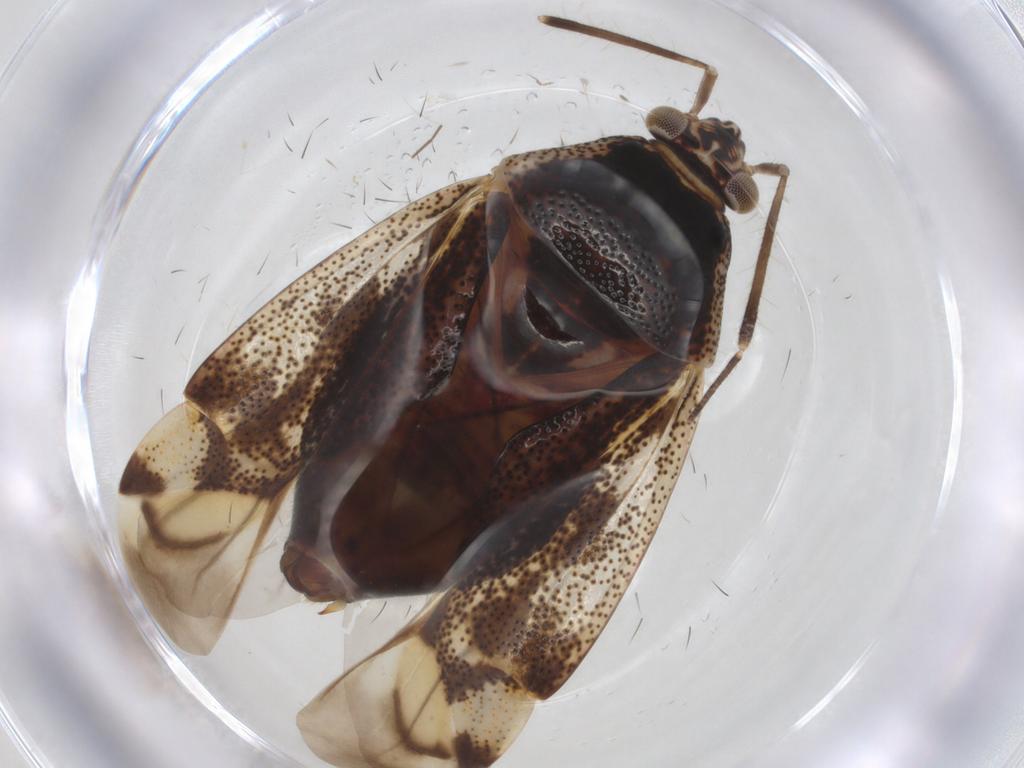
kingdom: Animalia
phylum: Arthropoda
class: Insecta
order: Hemiptera
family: Miridae
